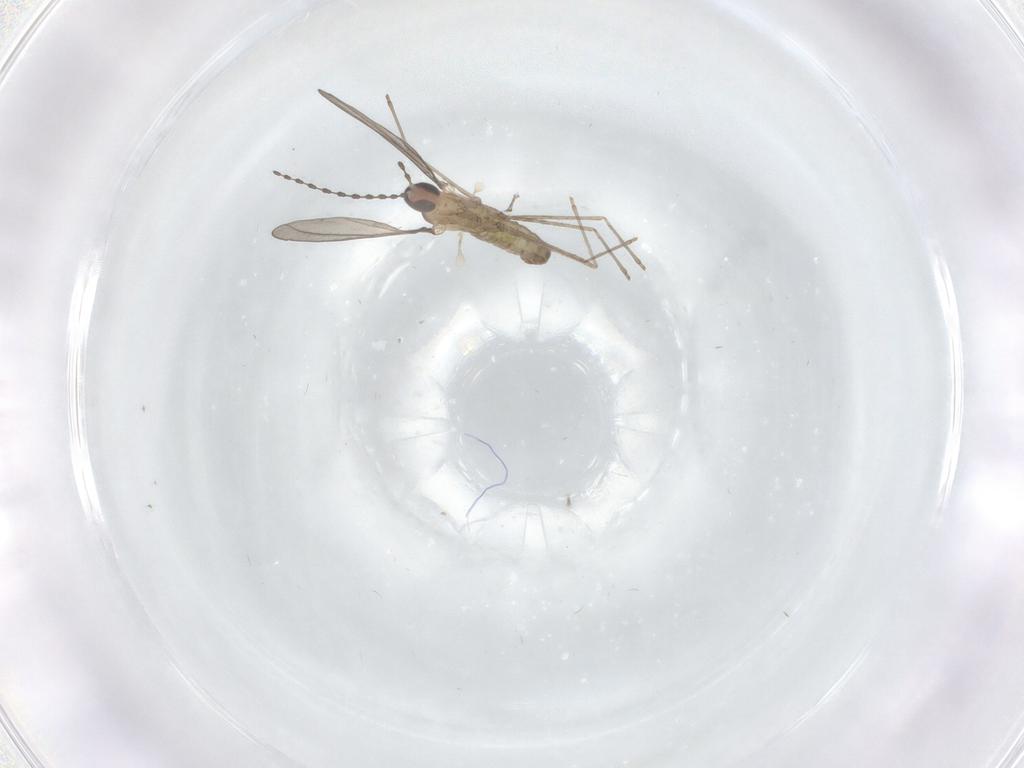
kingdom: Animalia
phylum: Arthropoda
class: Insecta
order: Diptera
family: Cecidomyiidae
